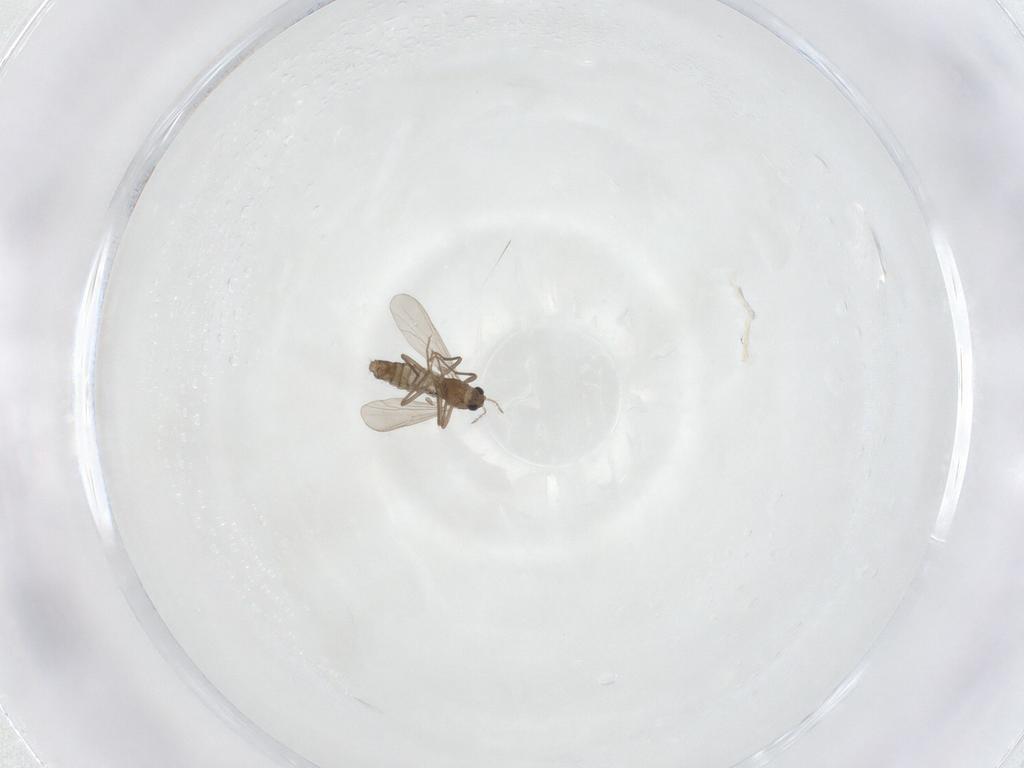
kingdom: Animalia
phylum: Arthropoda
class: Insecta
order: Diptera
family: Chironomidae
